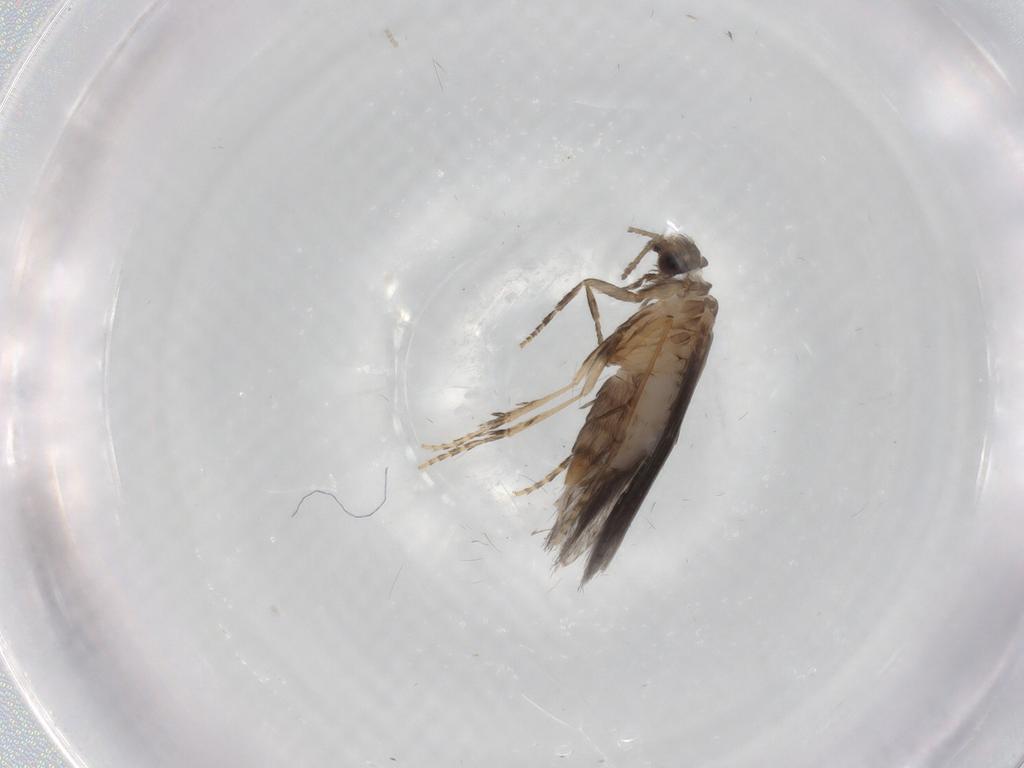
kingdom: Animalia
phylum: Arthropoda
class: Insecta
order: Trichoptera
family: Hydroptilidae
